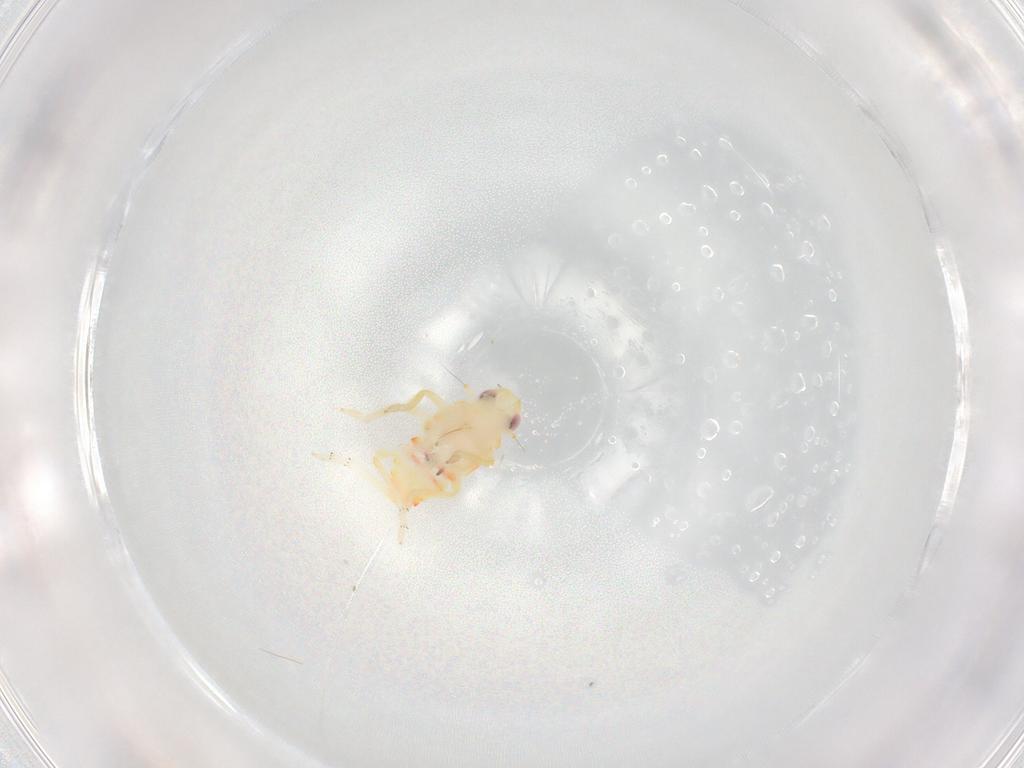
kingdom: Animalia
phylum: Arthropoda
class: Insecta
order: Hemiptera
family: Tropiduchidae
